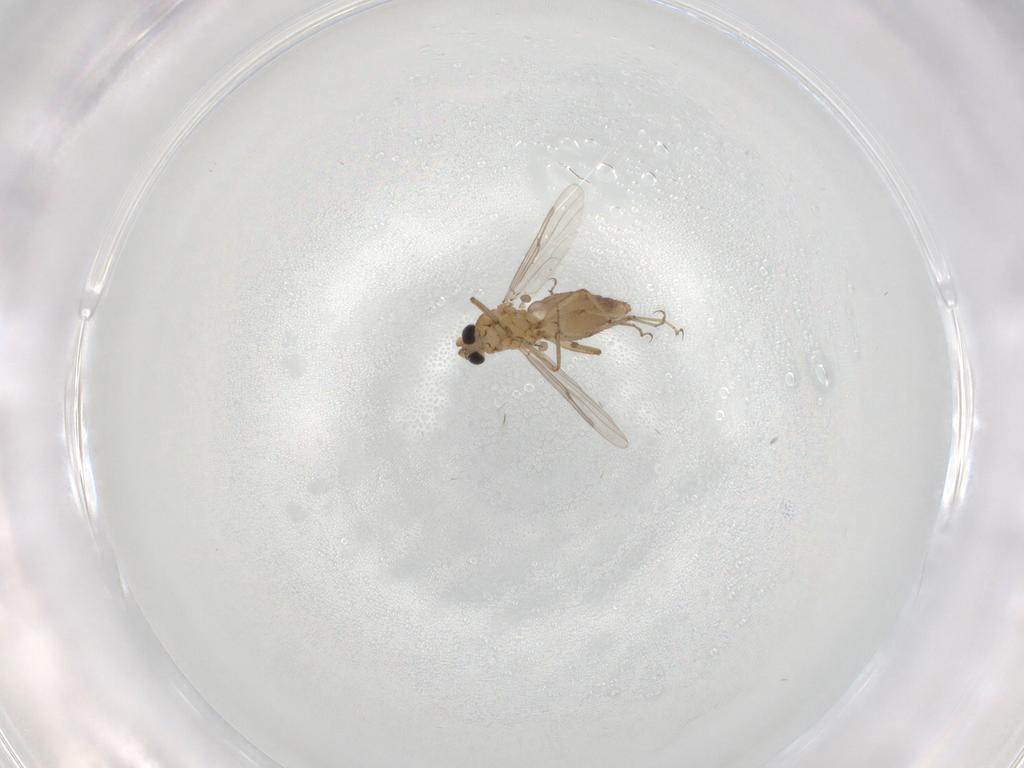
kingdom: Animalia
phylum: Arthropoda
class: Insecta
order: Diptera
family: Ceratopogonidae
